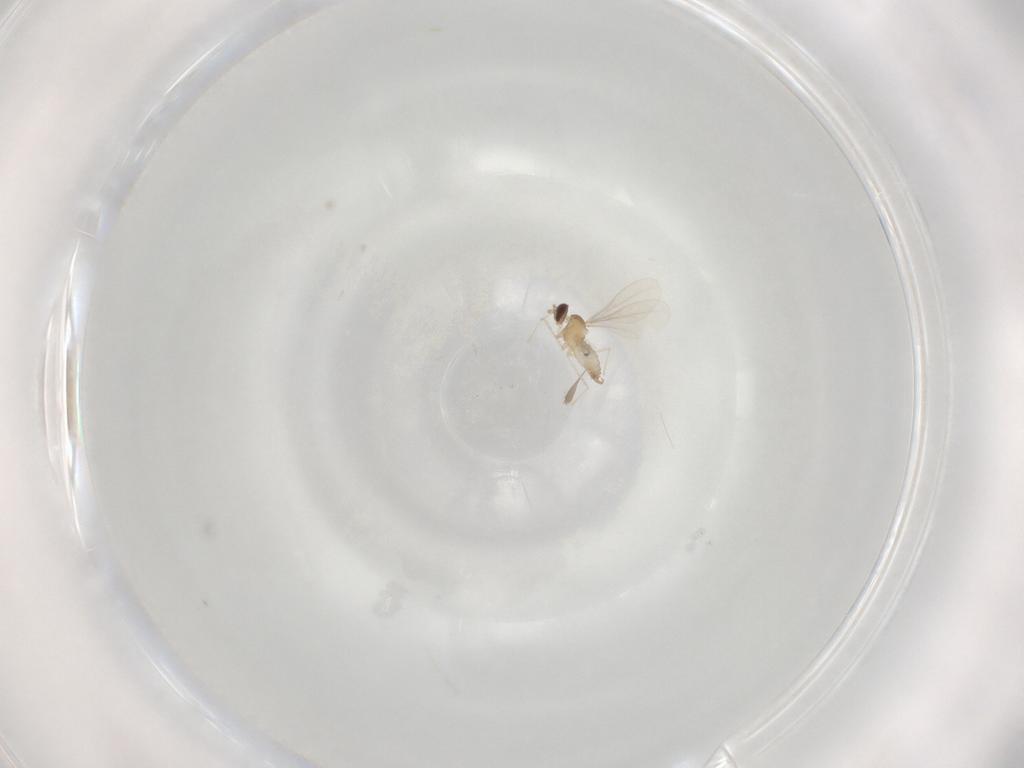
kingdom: Animalia
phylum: Arthropoda
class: Insecta
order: Diptera
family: Cecidomyiidae
